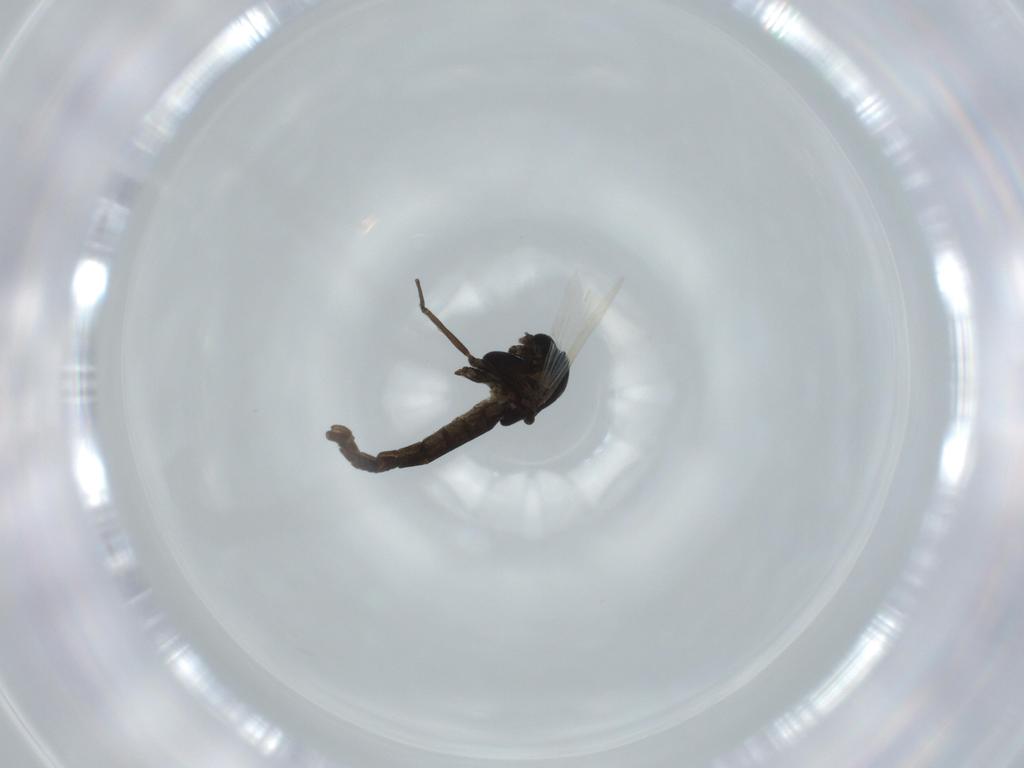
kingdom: Animalia
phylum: Arthropoda
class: Insecta
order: Diptera
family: Chironomidae
